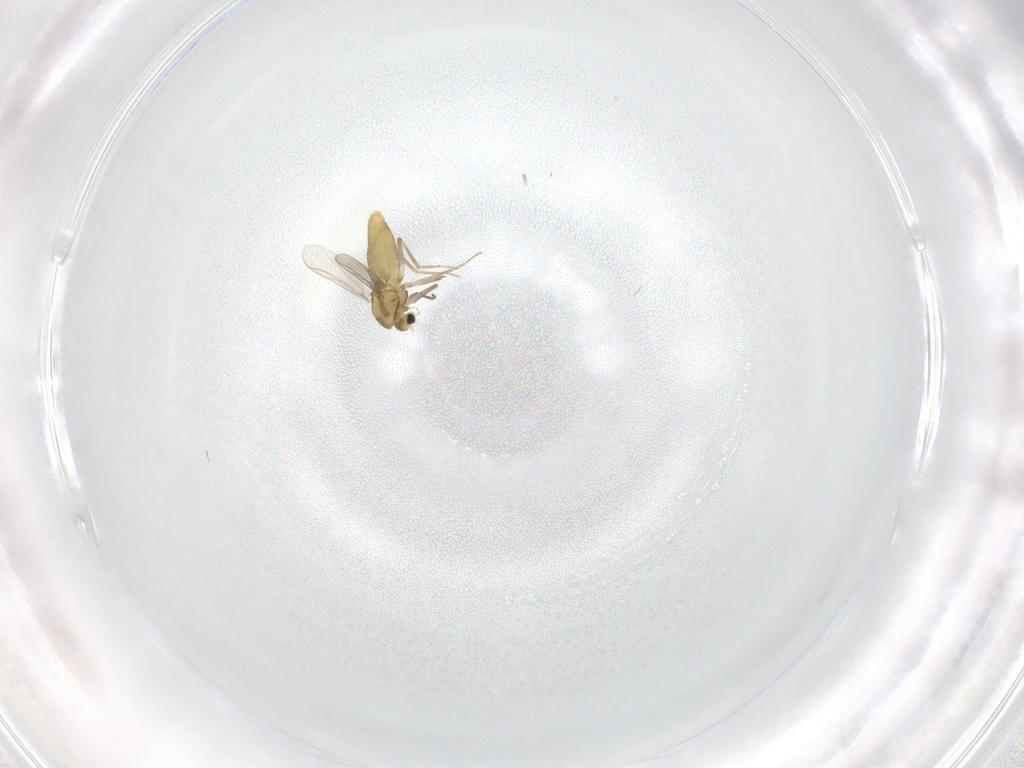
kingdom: Animalia
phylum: Arthropoda
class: Insecta
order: Diptera
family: Chironomidae
